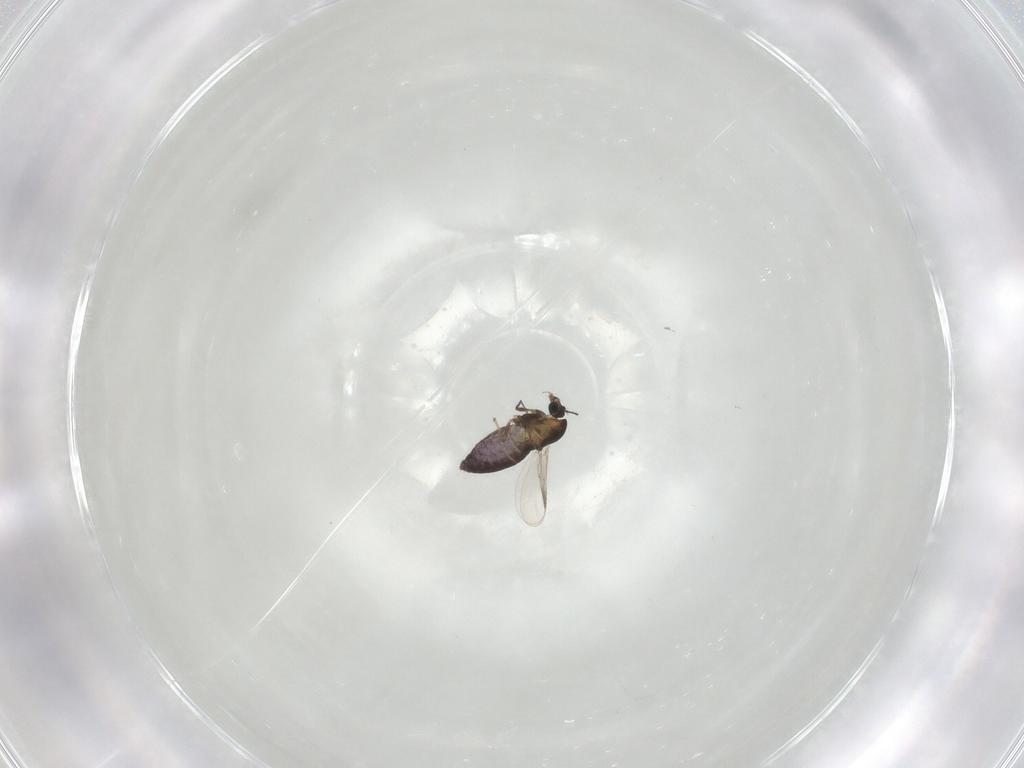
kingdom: Animalia
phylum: Arthropoda
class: Insecta
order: Diptera
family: Chironomidae
